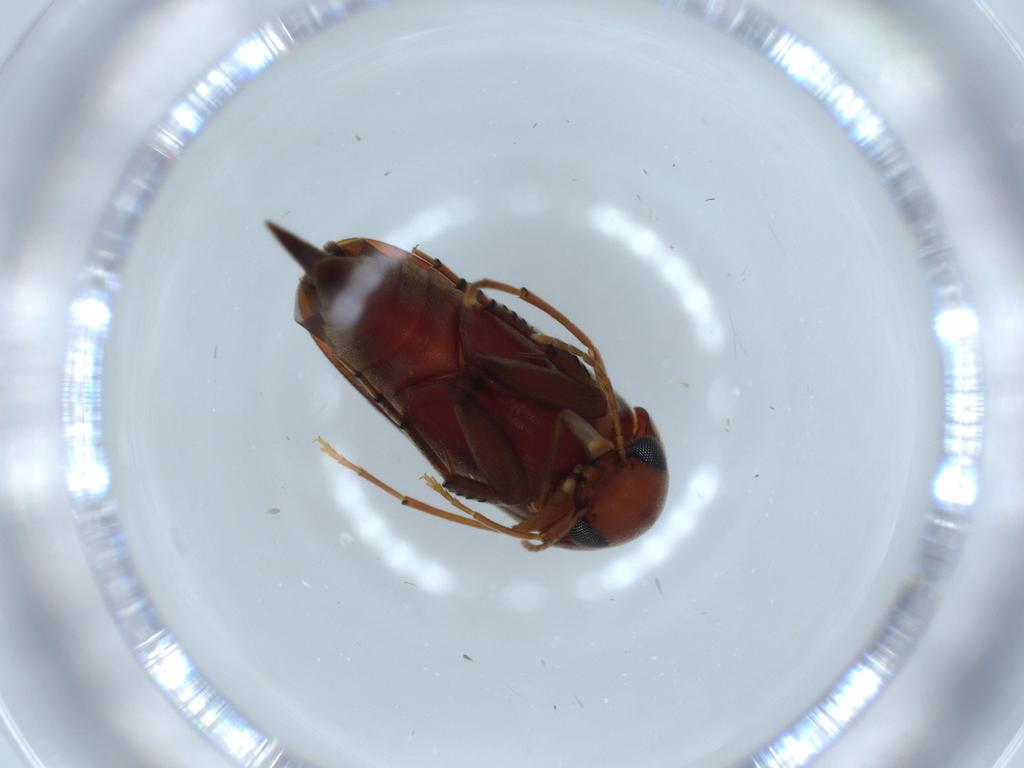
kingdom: Animalia
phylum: Arthropoda
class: Insecta
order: Coleoptera
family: Mordellidae
